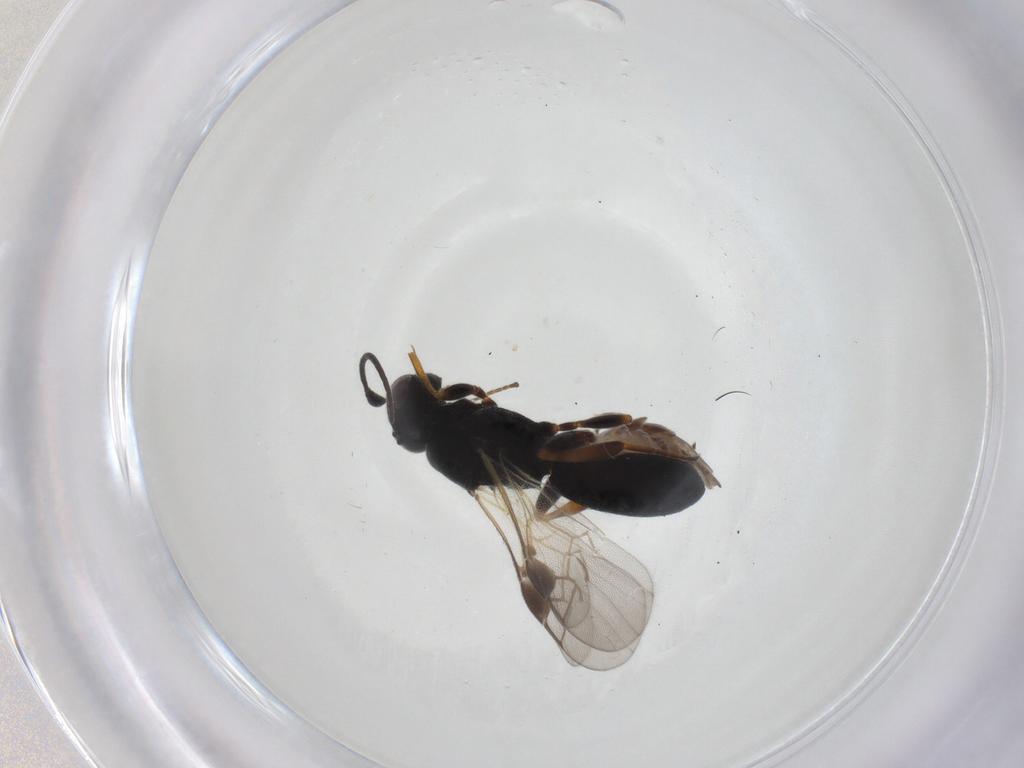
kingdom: Animalia
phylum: Arthropoda
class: Insecta
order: Hymenoptera
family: Braconidae
